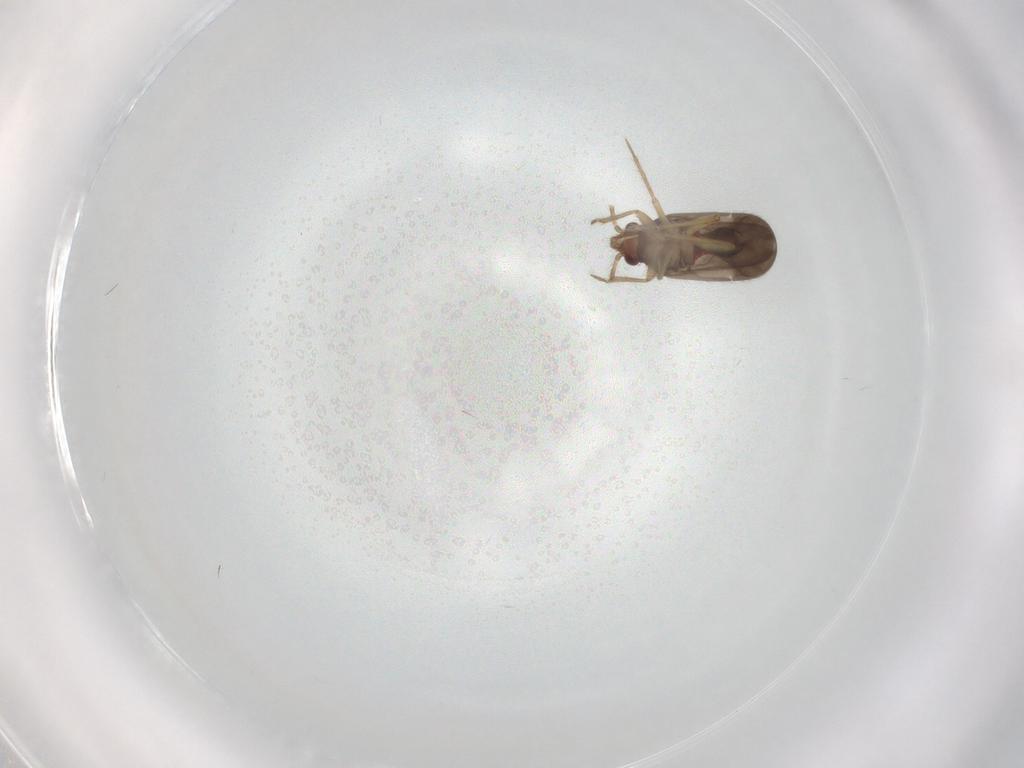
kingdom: Animalia
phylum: Arthropoda
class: Insecta
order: Hemiptera
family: Ceratocombidae
